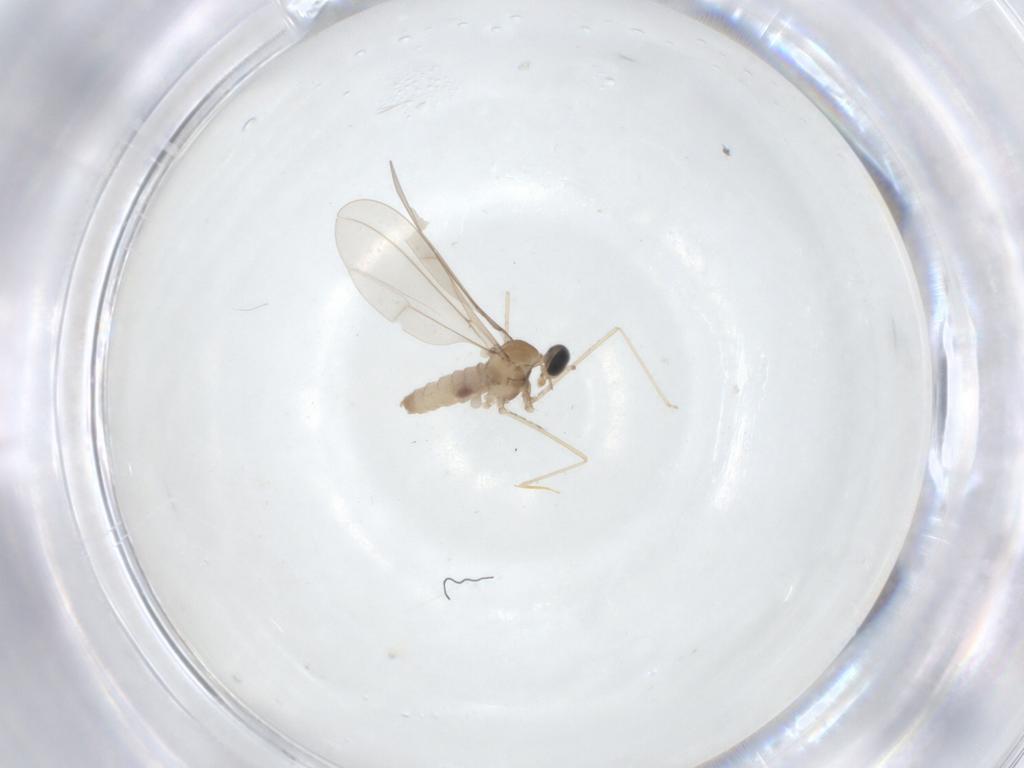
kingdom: Animalia
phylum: Arthropoda
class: Insecta
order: Diptera
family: Cecidomyiidae
